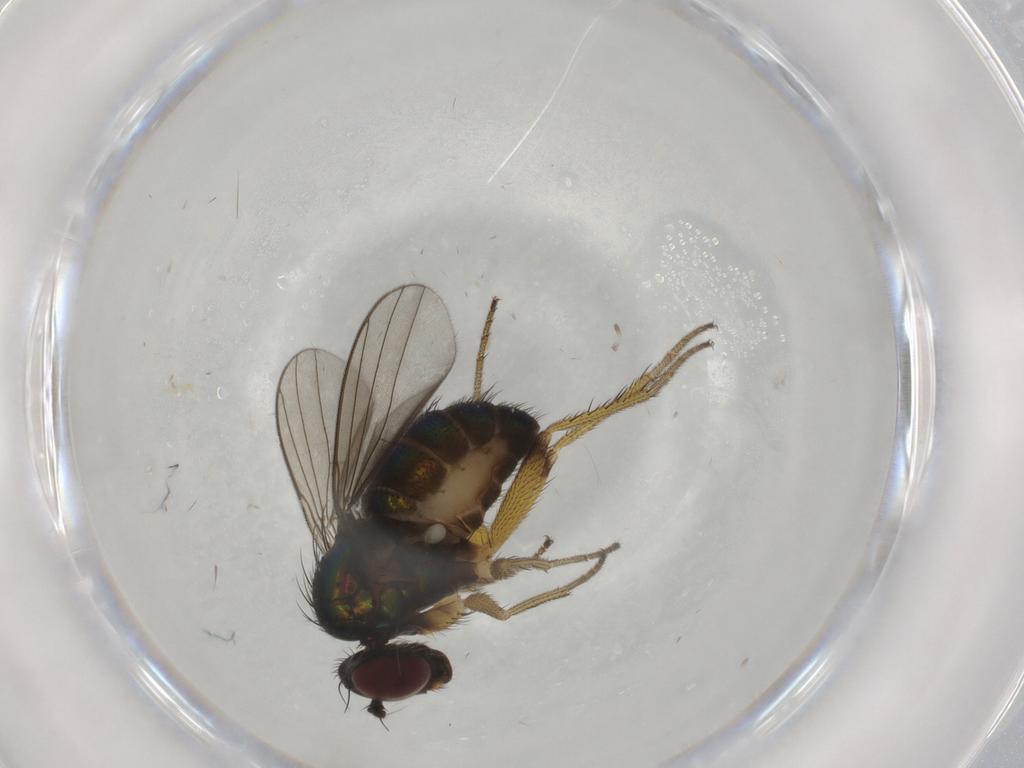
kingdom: Animalia
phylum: Arthropoda
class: Insecta
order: Diptera
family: Dolichopodidae
